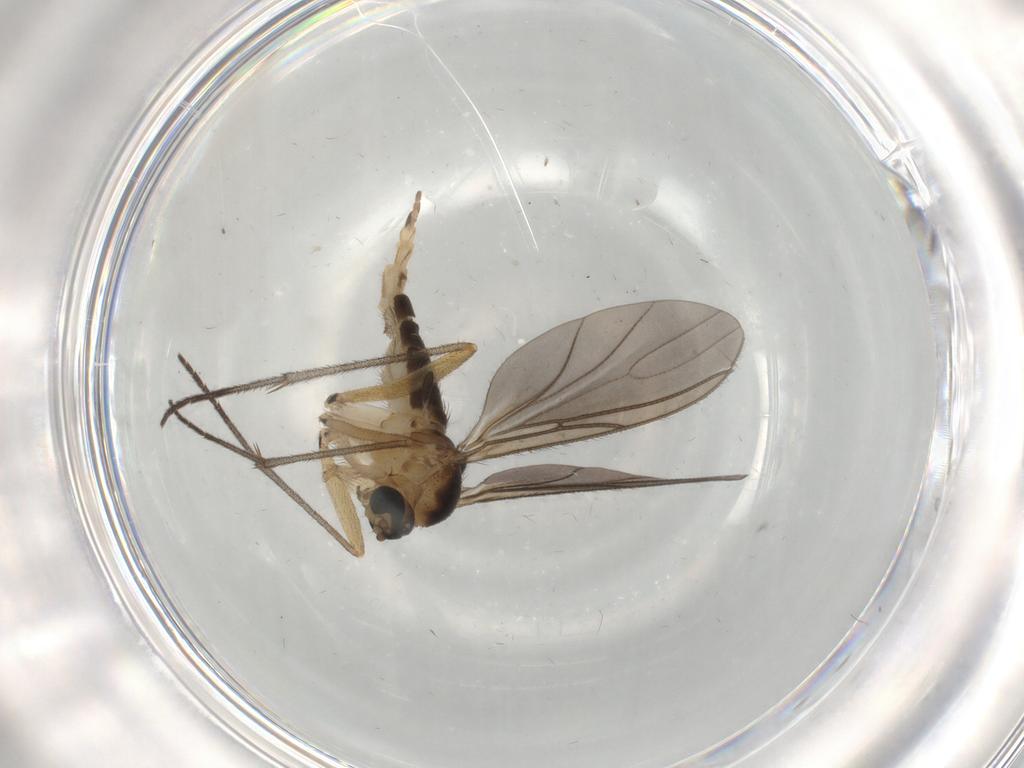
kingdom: Animalia
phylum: Arthropoda
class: Insecta
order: Diptera
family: Sciaridae
